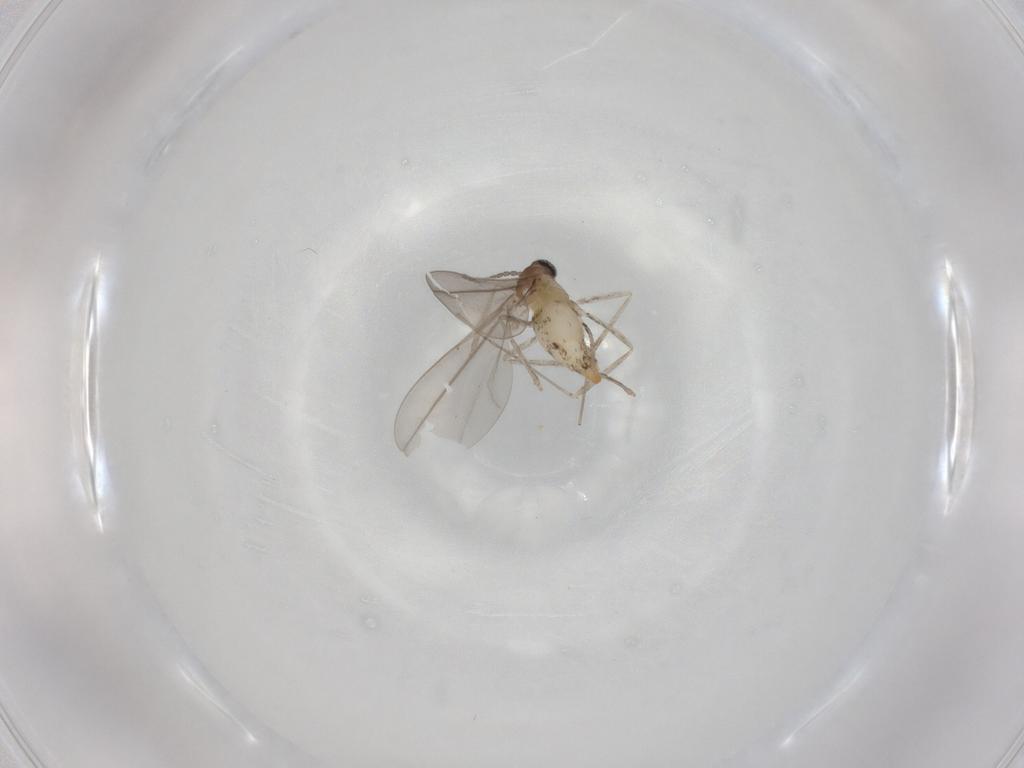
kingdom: Animalia
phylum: Arthropoda
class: Insecta
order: Diptera
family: Cecidomyiidae
